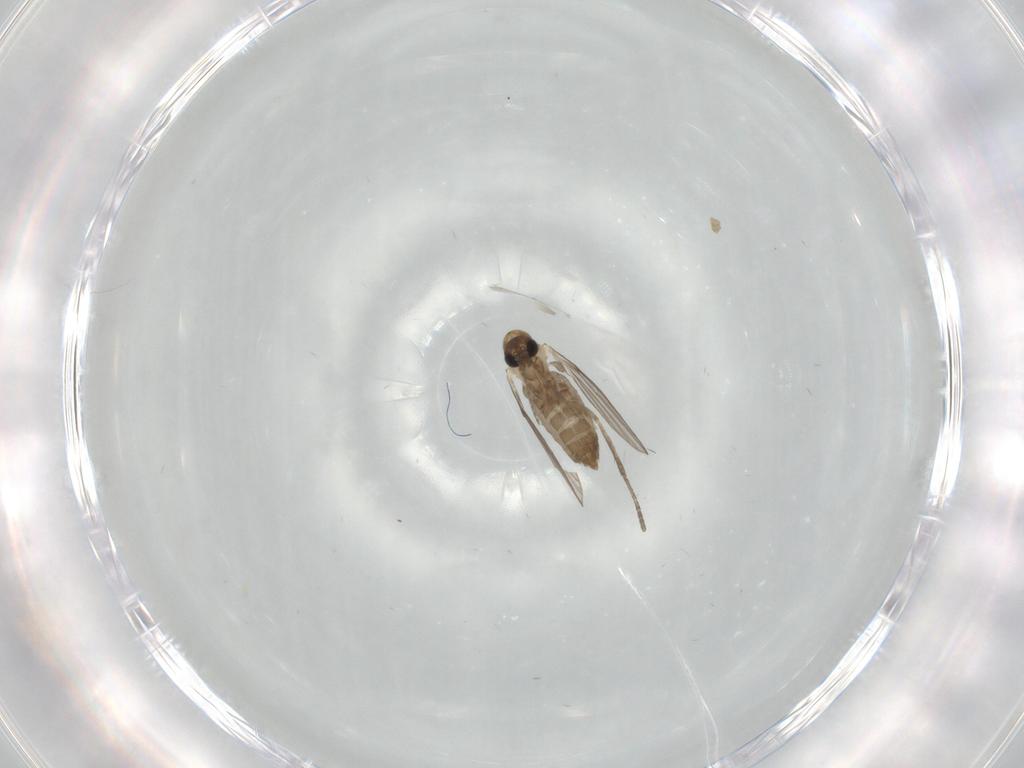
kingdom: Animalia
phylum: Arthropoda
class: Insecta
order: Diptera
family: Psychodidae
